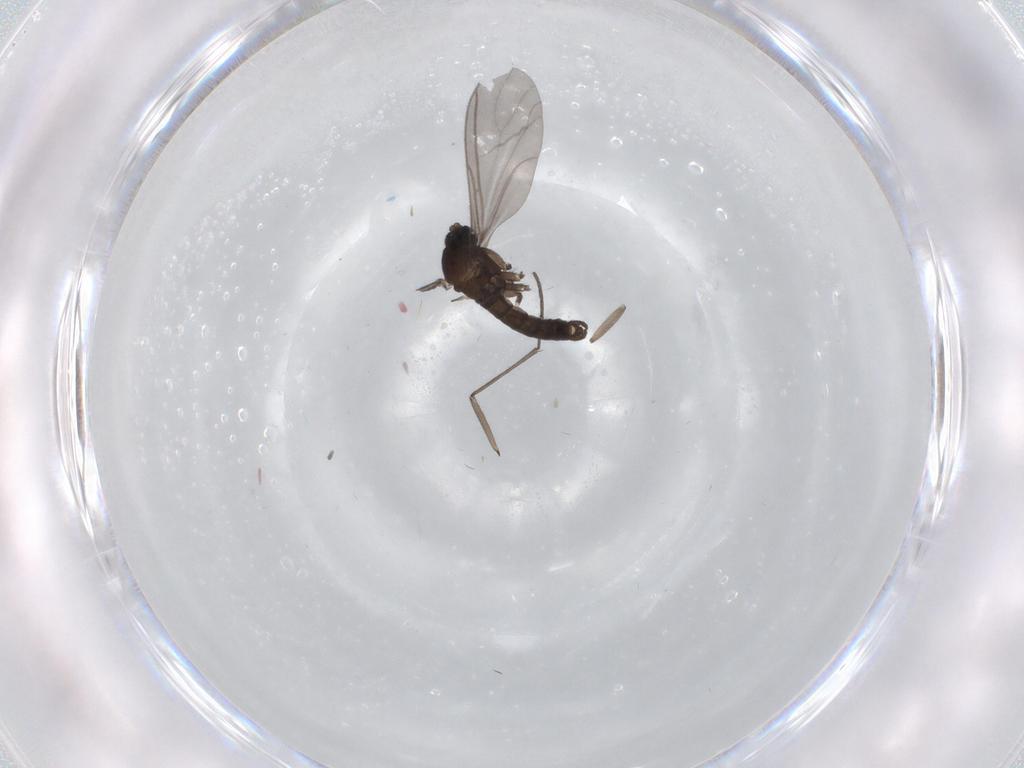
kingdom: Animalia
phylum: Arthropoda
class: Insecta
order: Diptera
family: Sciaridae
